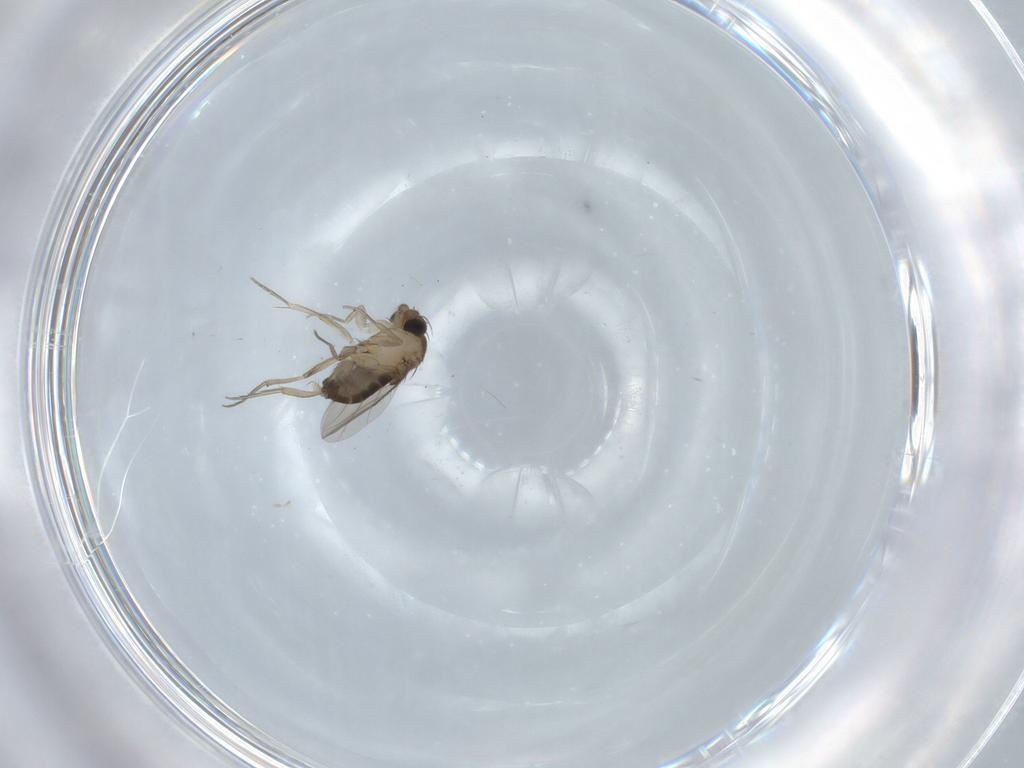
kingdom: Animalia
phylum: Arthropoda
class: Insecta
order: Diptera
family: Phoridae
